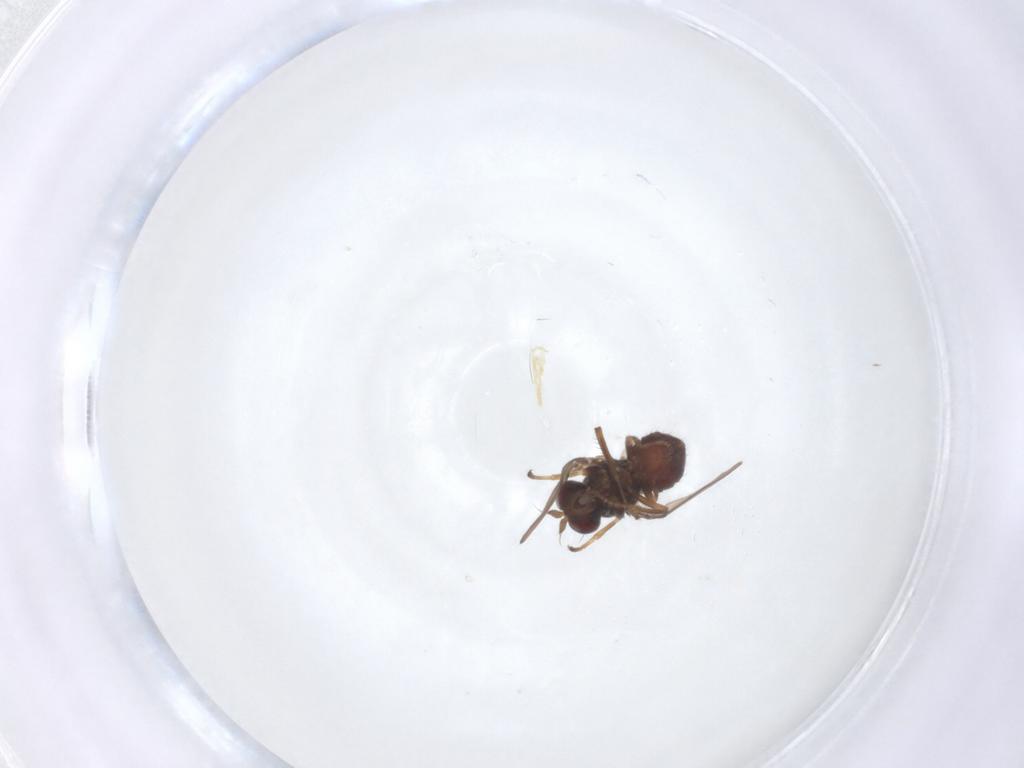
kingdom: Animalia
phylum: Arthropoda
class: Insecta
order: Diptera
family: Ephydridae
